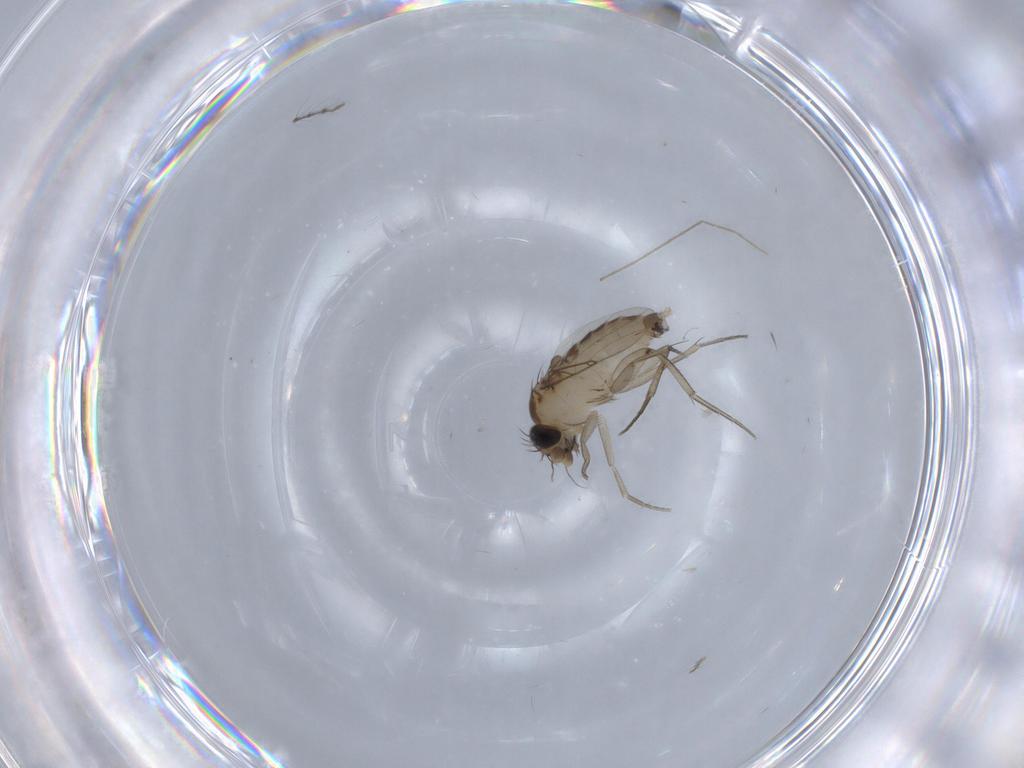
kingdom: Animalia
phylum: Arthropoda
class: Insecta
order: Diptera
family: Phoridae
